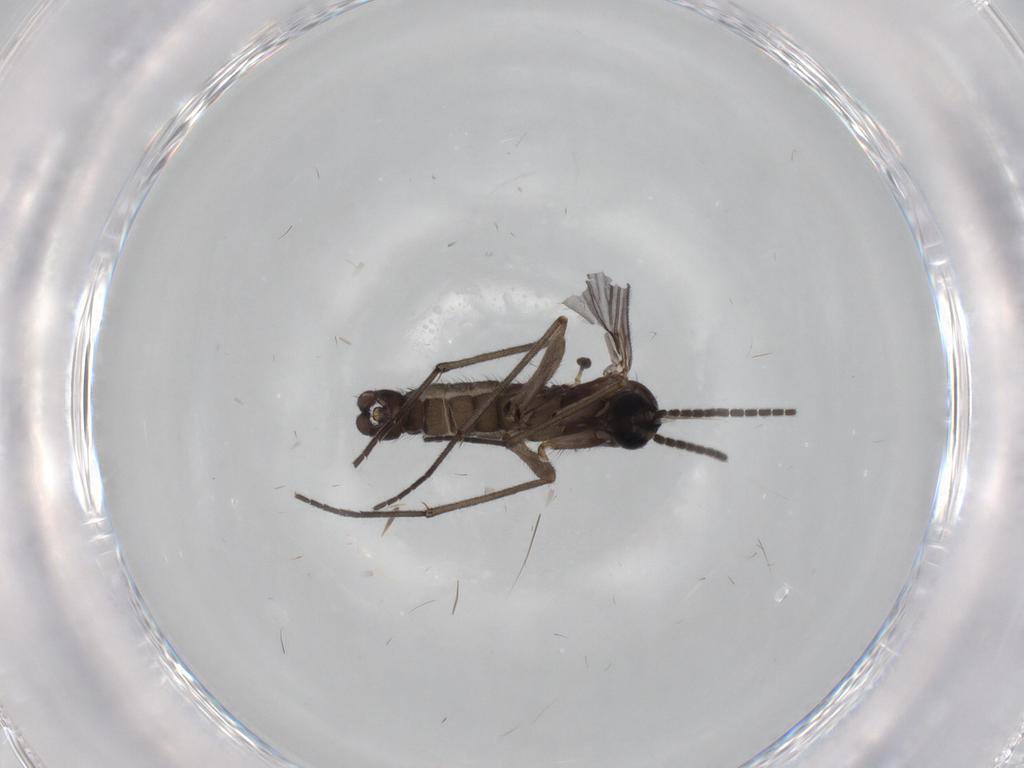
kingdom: Animalia
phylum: Arthropoda
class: Insecta
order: Diptera
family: Sciaridae
